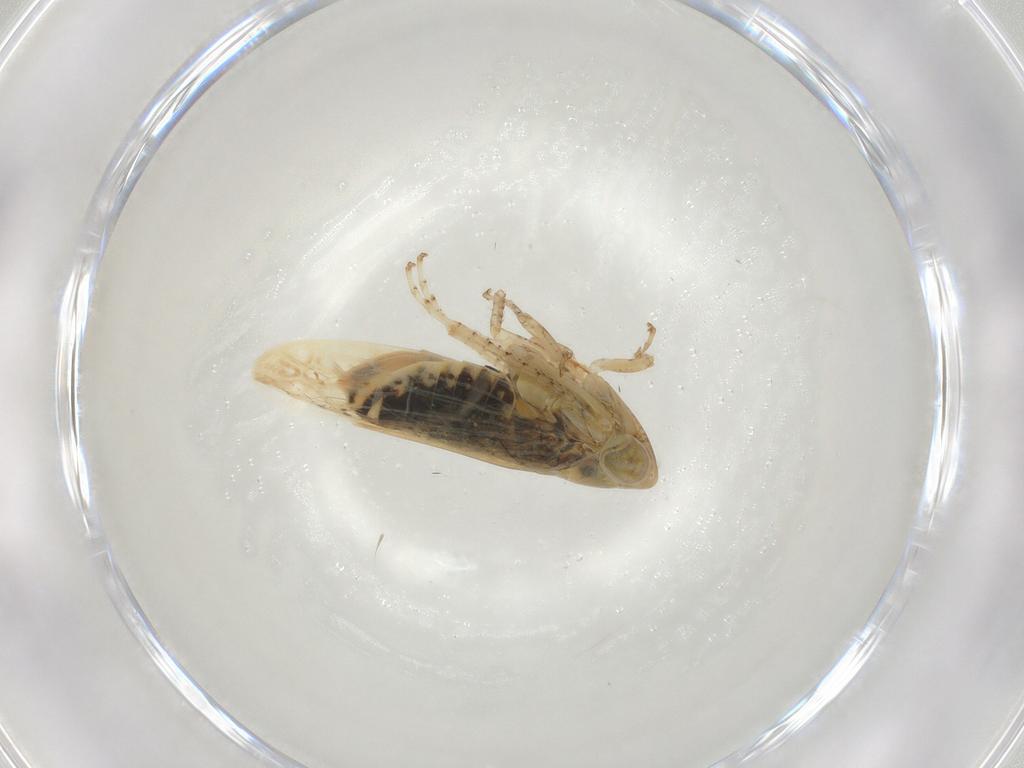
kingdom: Animalia
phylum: Arthropoda
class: Insecta
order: Hemiptera
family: Cicadellidae
